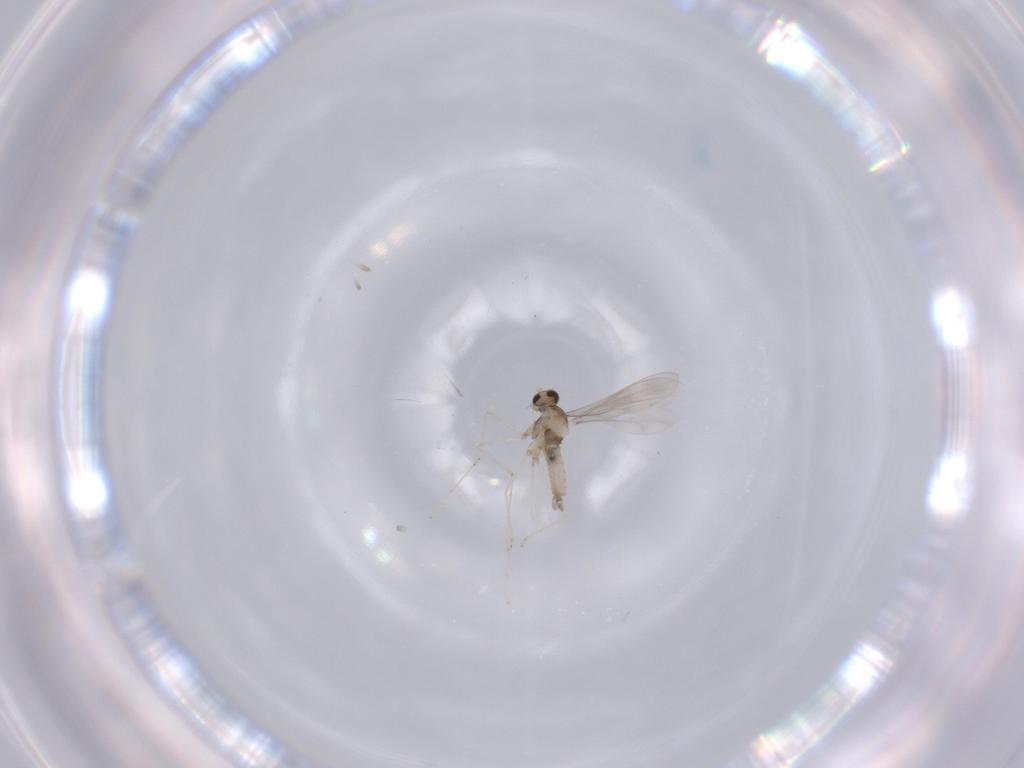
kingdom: Animalia
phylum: Arthropoda
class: Insecta
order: Diptera
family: Cecidomyiidae
